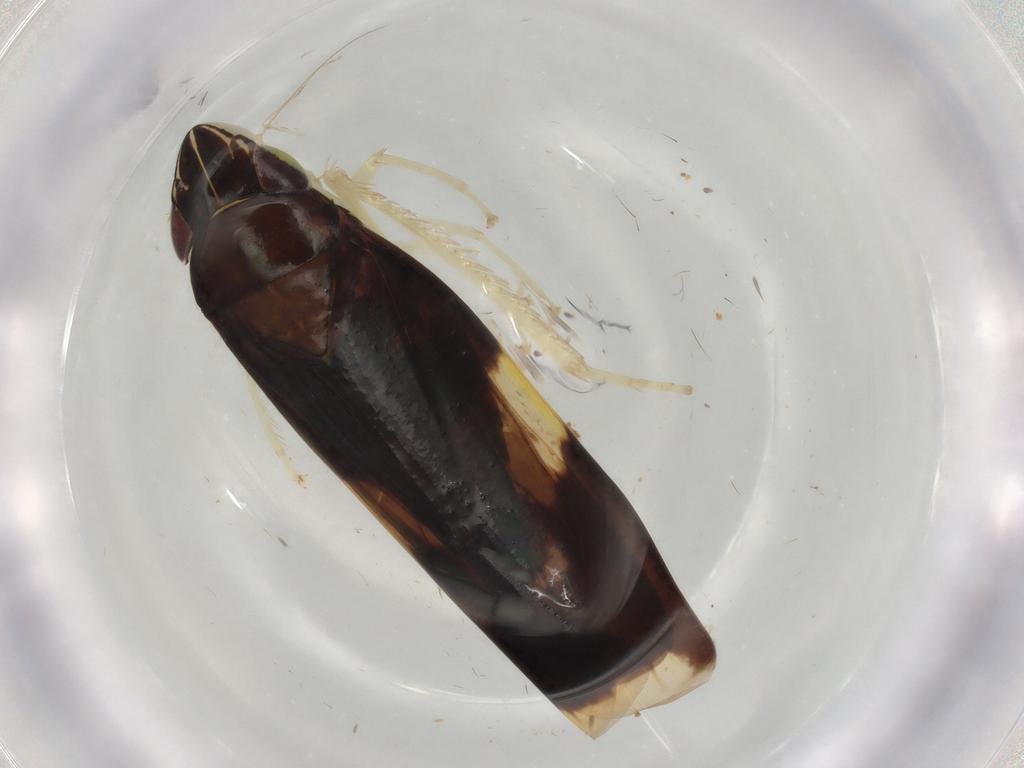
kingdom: Animalia
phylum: Arthropoda
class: Insecta
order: Hemiptera
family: Cicadellidae
